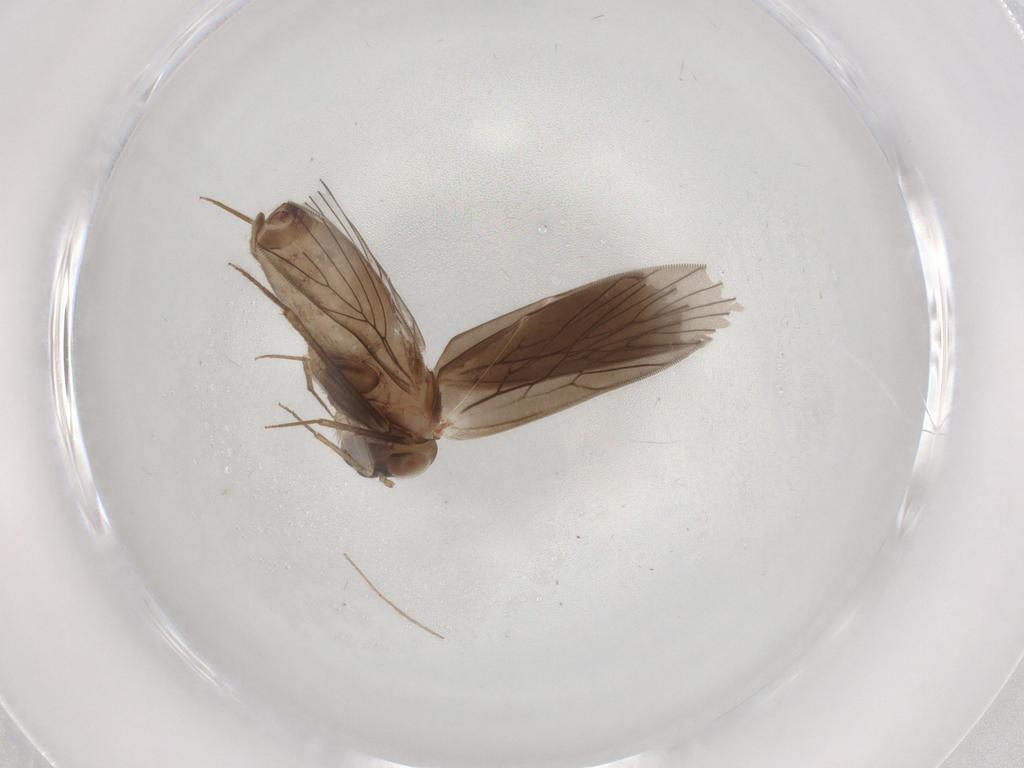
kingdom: Animalia
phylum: Arthropoda
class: Insecta
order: Psocodea
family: Lepidopsocidae
